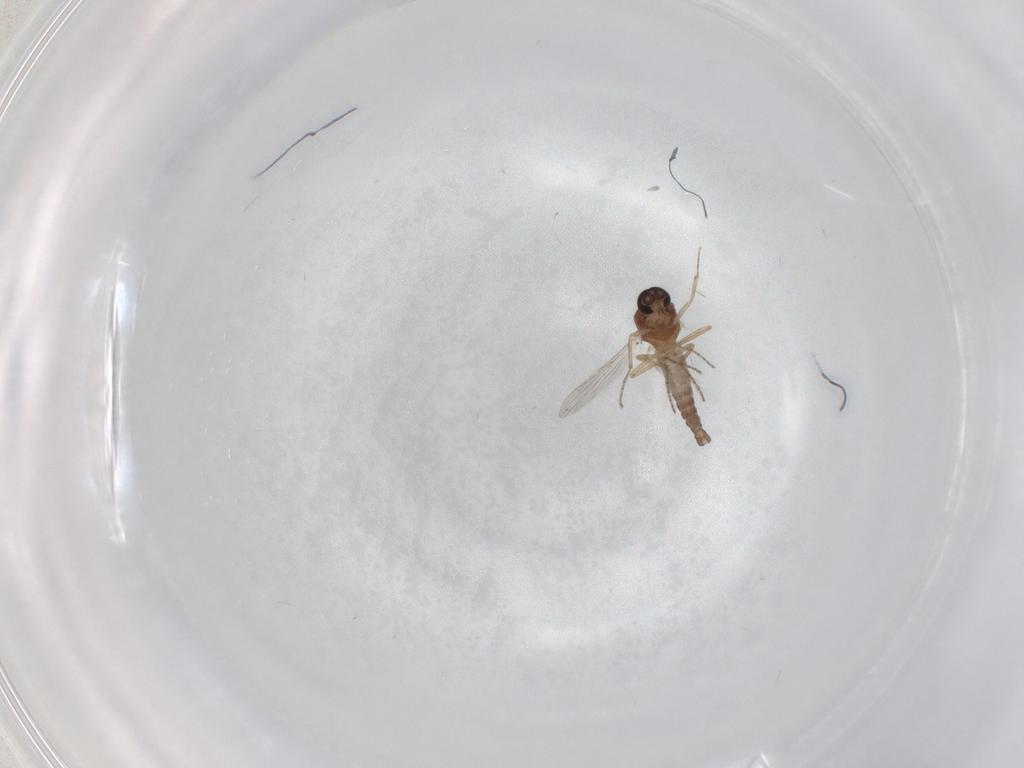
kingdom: Animalia
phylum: Arthropoda
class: Insecta
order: Diptera
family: Ceratopogonidae
